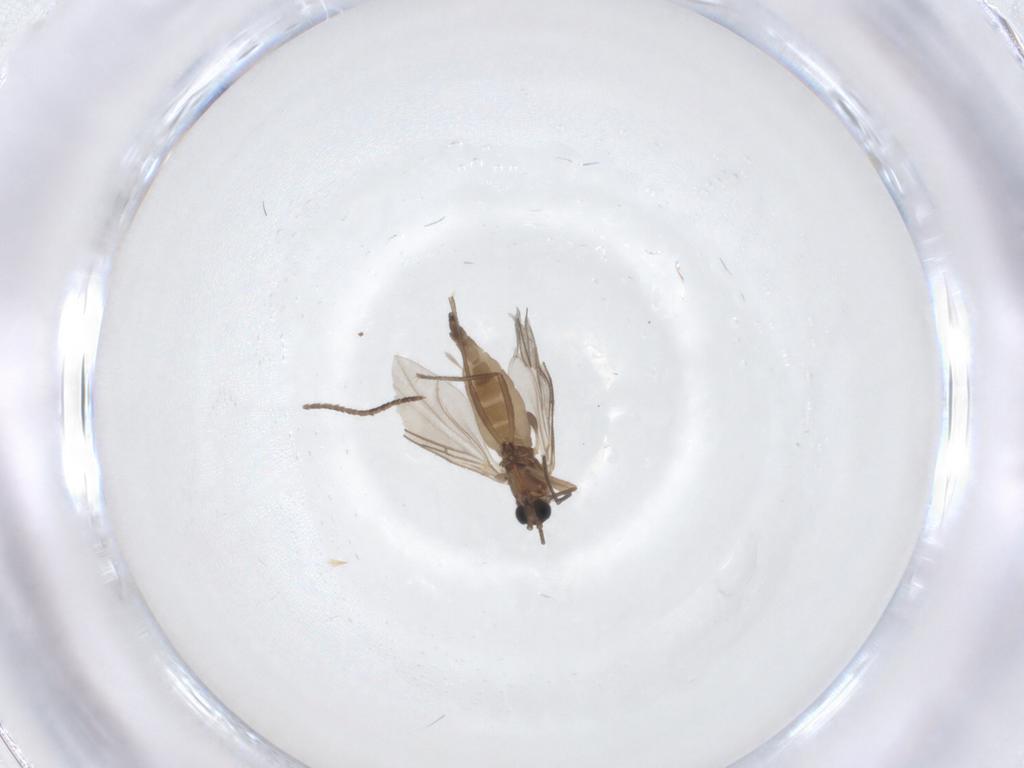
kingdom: Animalia
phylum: Arthropoda
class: Insecta
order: Diptera
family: Sciaridae
